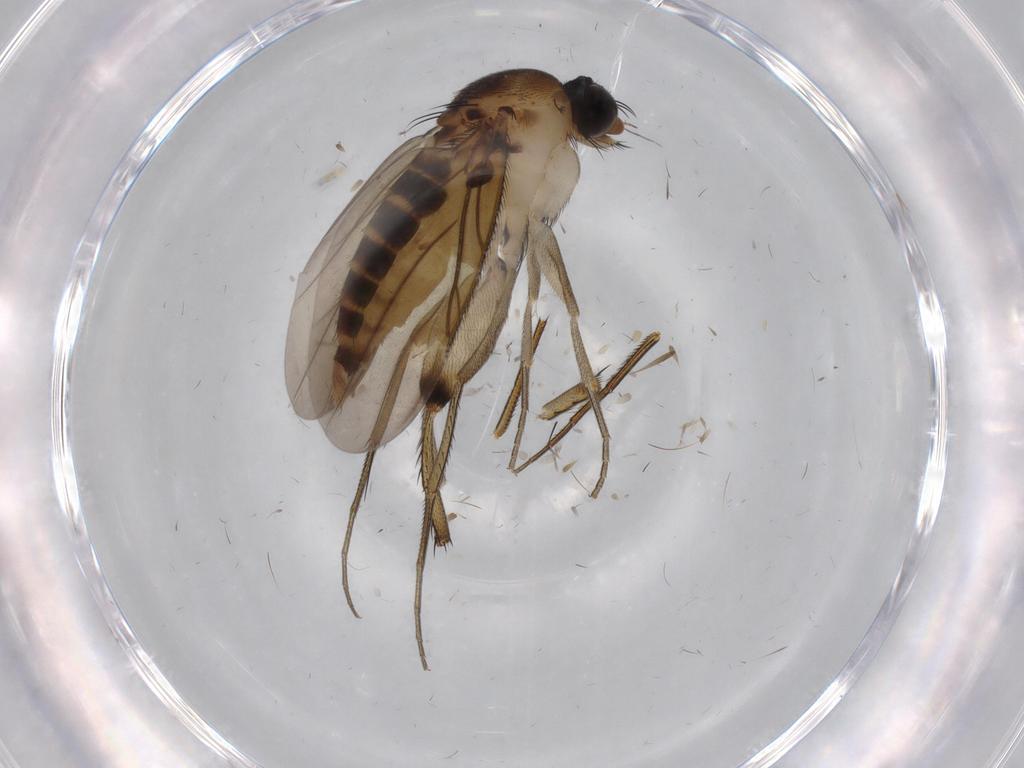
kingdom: Animalia
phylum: Arthropoda
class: Insecta
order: Diptera
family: Phoridae
